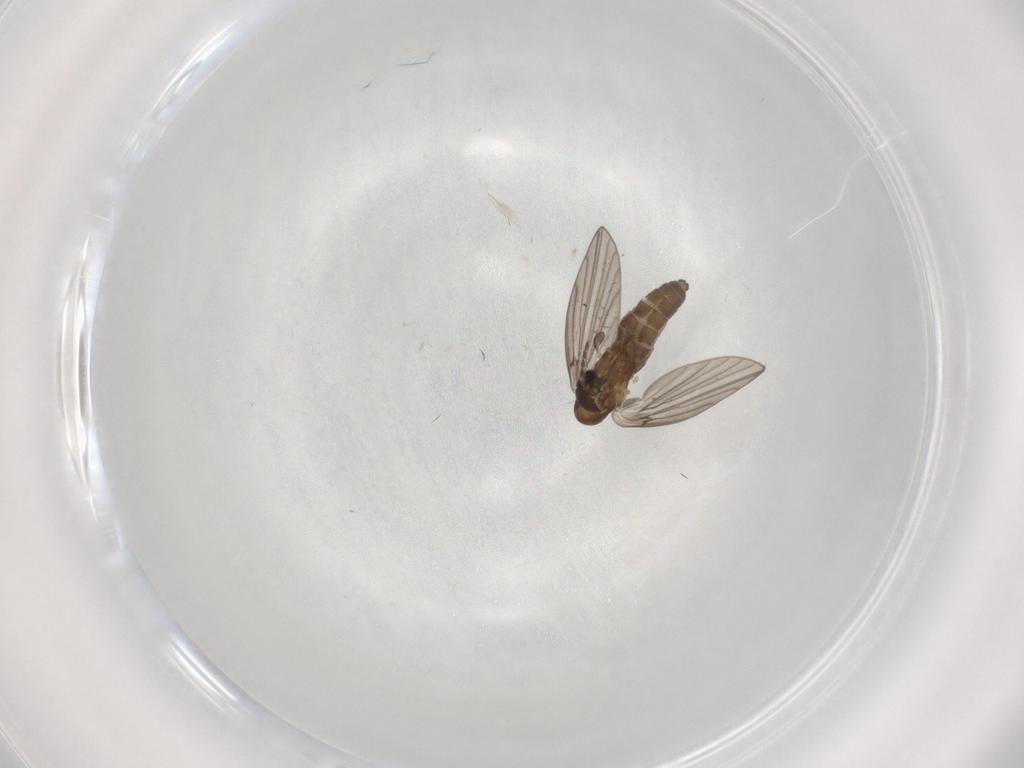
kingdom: Animalia
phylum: Arthropoda
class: Insecta
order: Diptera
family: Psychodidae
